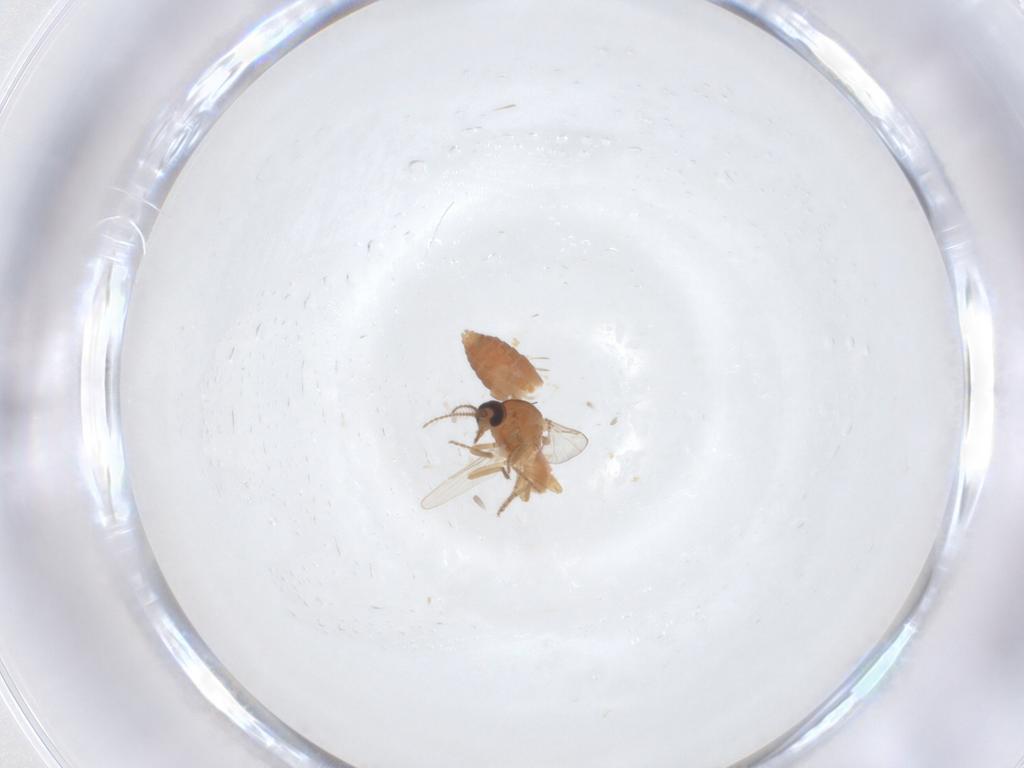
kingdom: Animalia
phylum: Arthropoda
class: Insecta
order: Diptera
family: Ceratopogonidae
